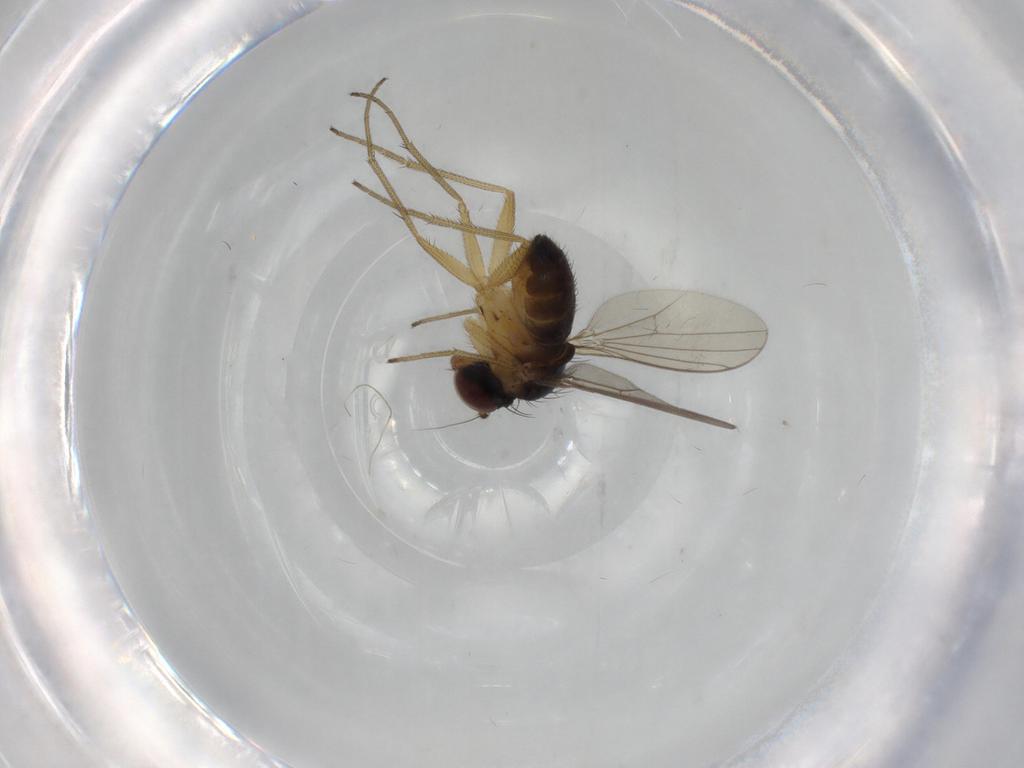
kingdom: Animalia
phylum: Arthropoda
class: Insecta
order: Diptera
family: Dolichopodidae
